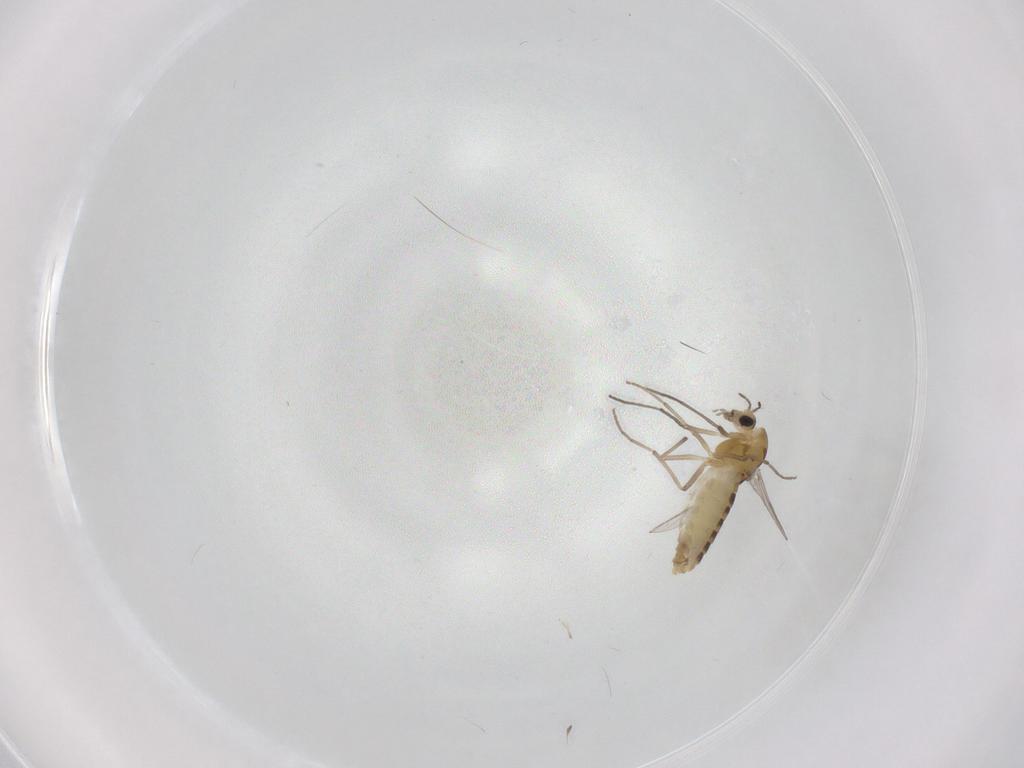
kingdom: Animalia
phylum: Arthropoda
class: Insecta
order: Diptera
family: Chironomidae
